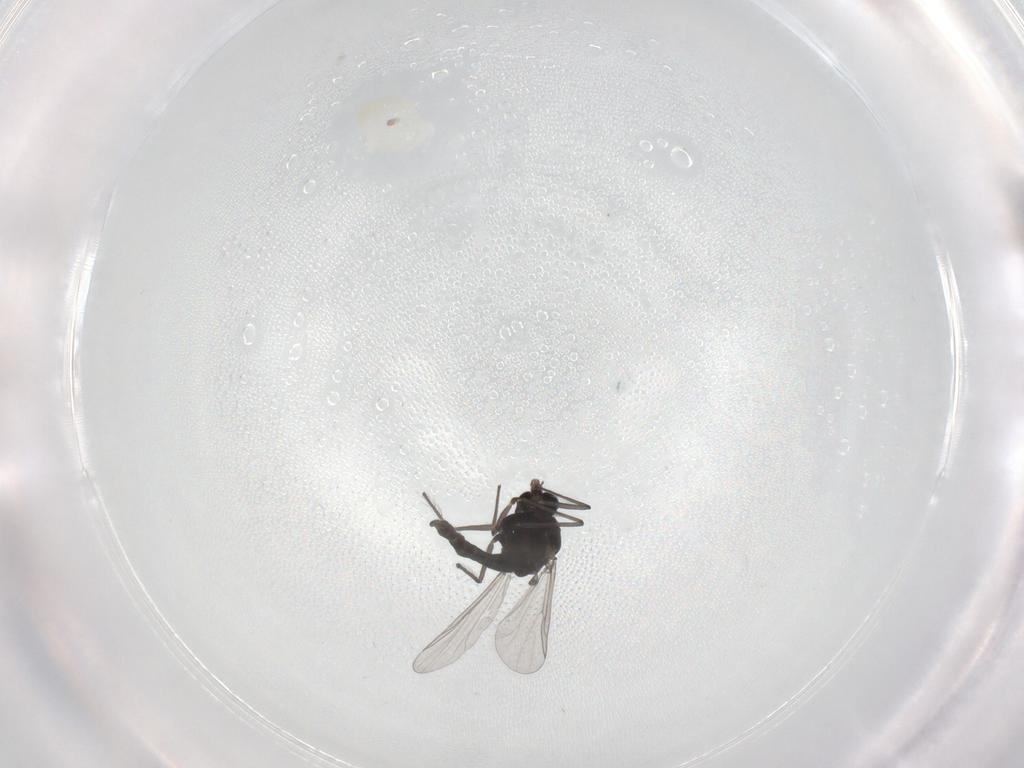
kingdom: Animalia
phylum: Arthropoda
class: Insecta
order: Diptera
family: Chironomidae
